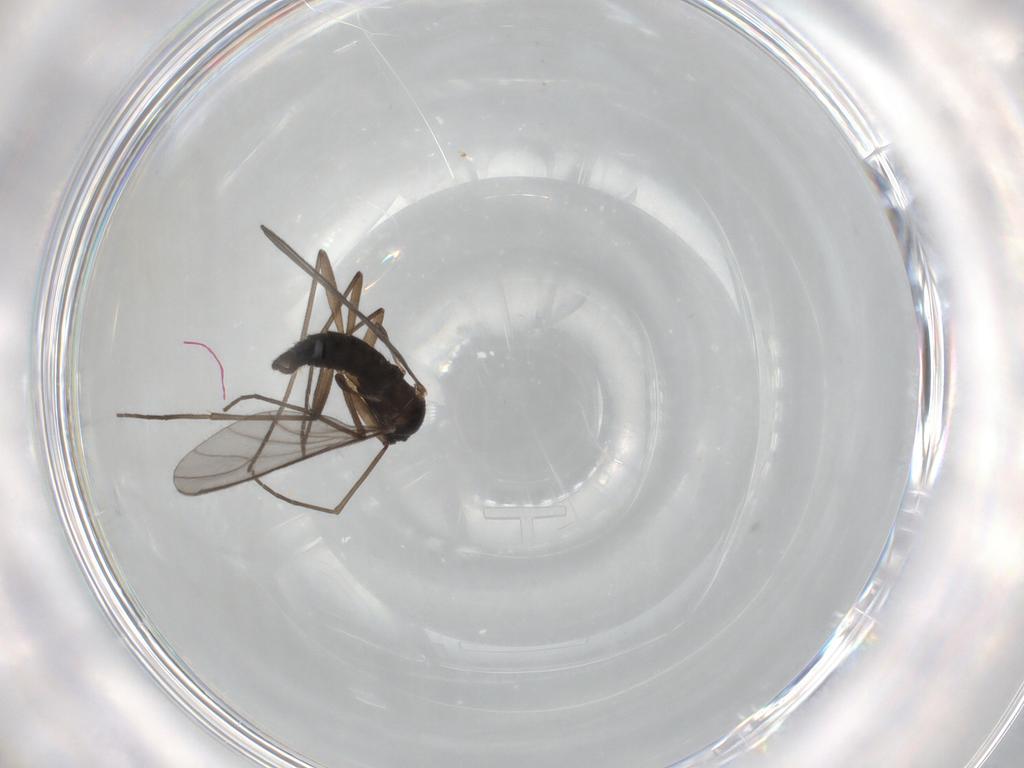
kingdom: Animalia
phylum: Arthropoda
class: Insecta
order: Diptera
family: Sciaridae
